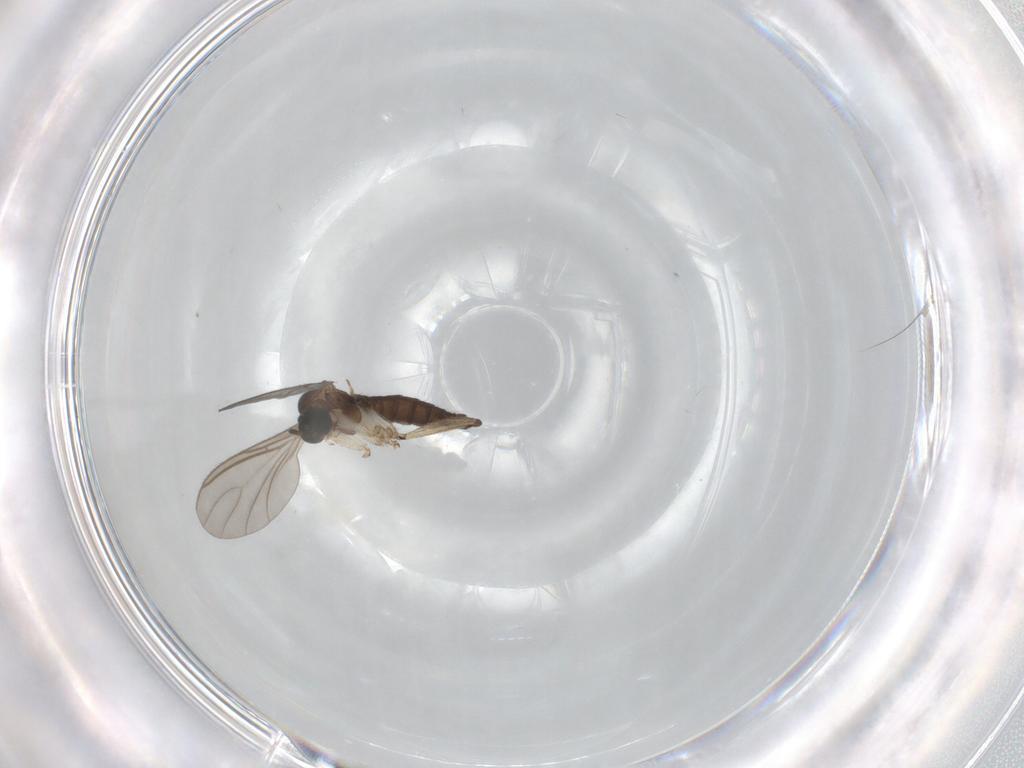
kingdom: Animalia
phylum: Arthropoda
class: Insecta
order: Diptera
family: Sciaridae
